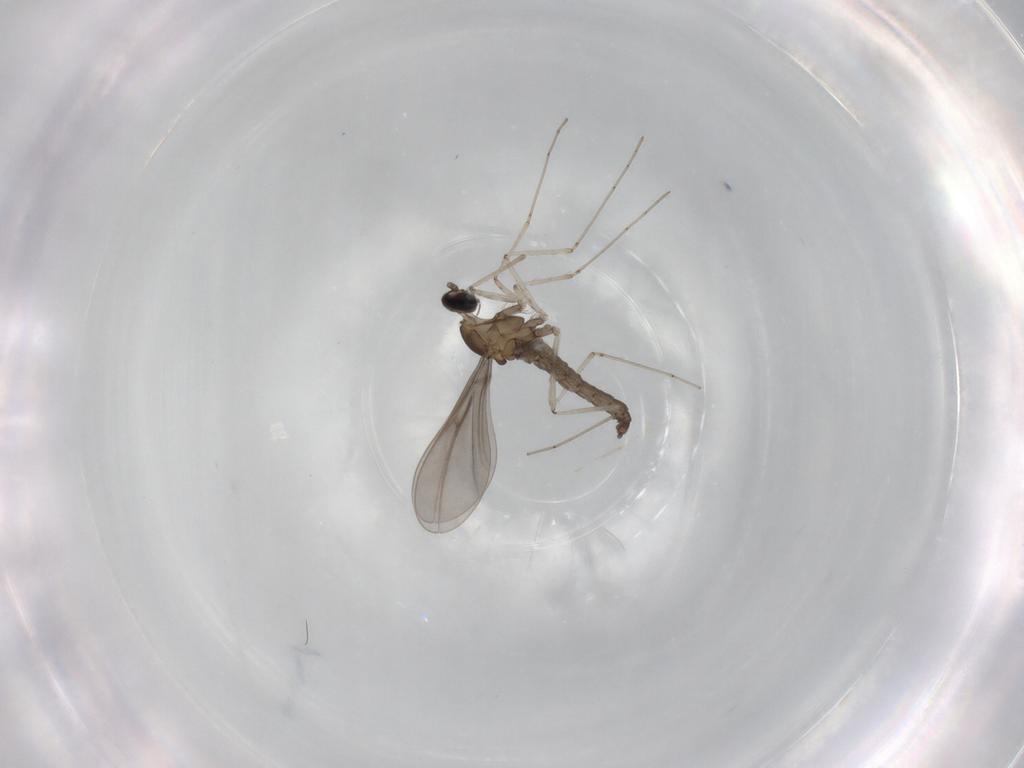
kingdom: Animalia
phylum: Arthropoda
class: Insecta
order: Diptera
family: Cecidomyiidae
